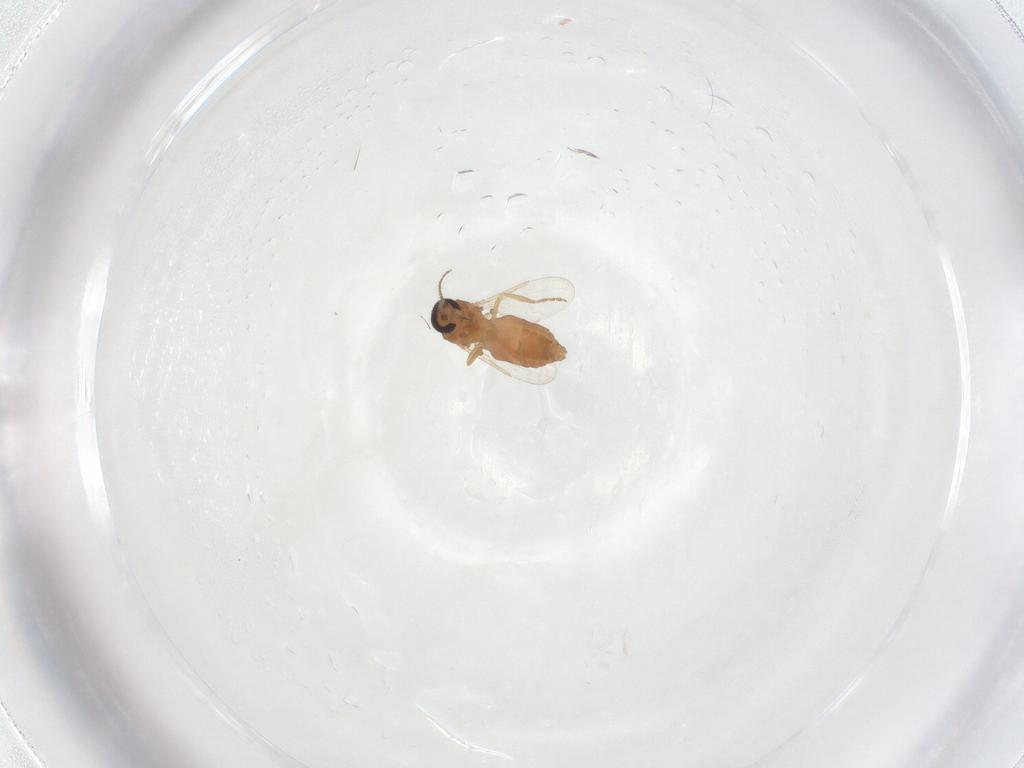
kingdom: Animalia
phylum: Arthropoda
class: Insecta
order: Diptera
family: Ceratopogonidae
